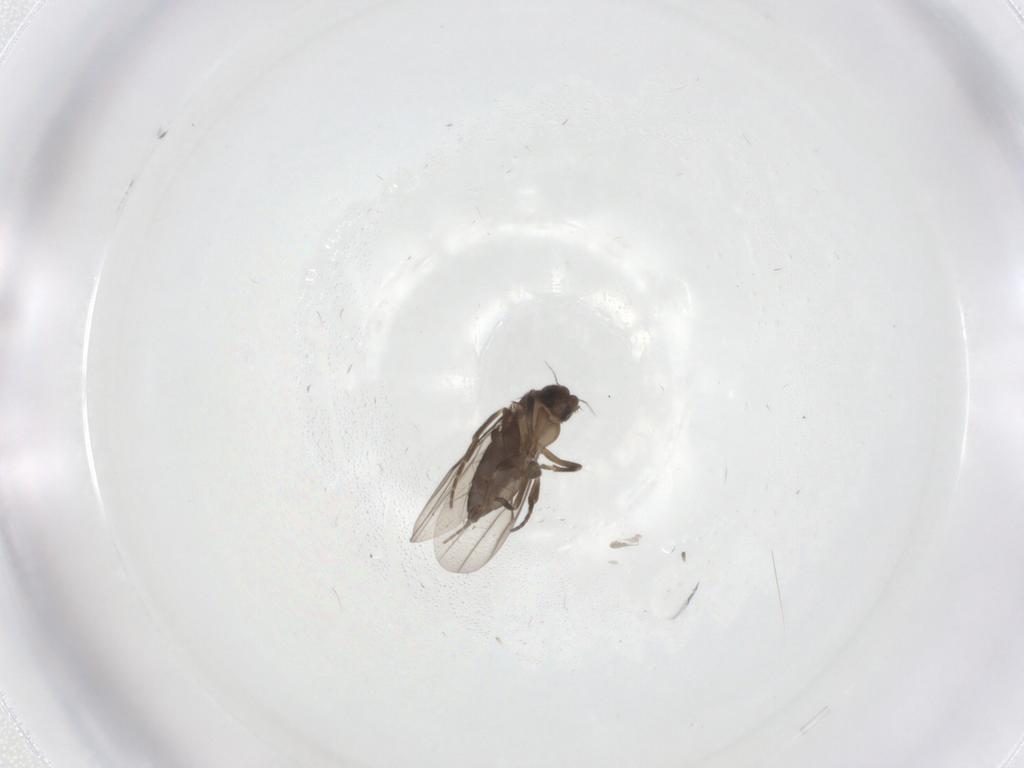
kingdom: Animalia
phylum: Arthropoda
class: Insecta
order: Diptera
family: Phoridae
